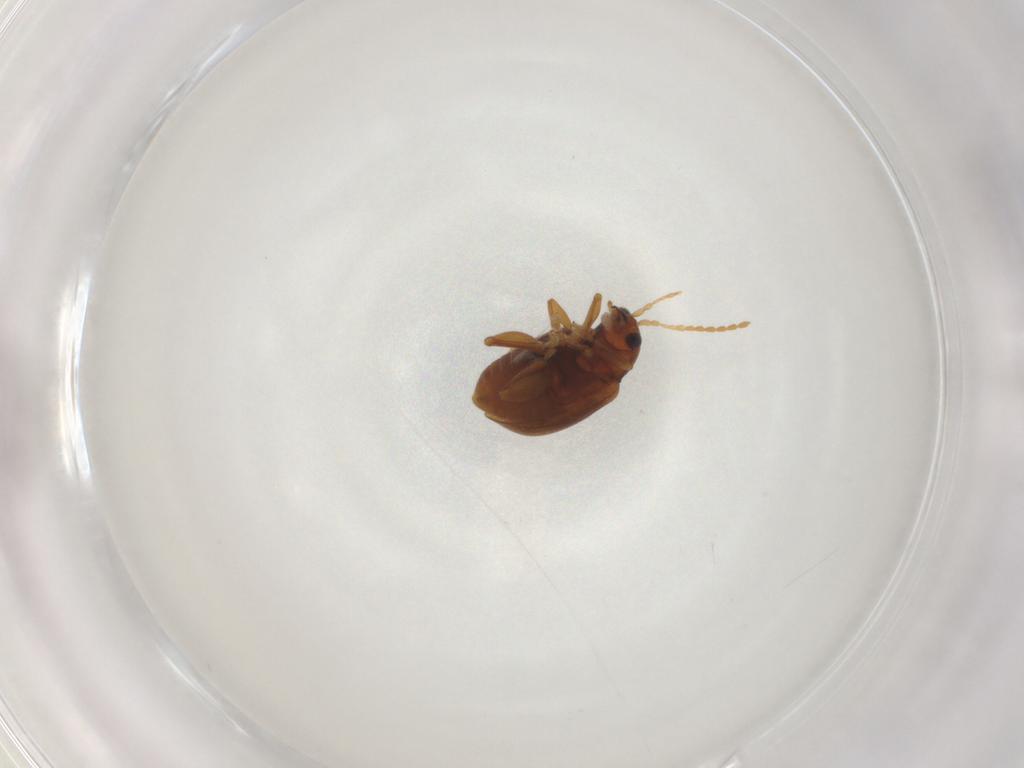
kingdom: Animalia
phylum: Arthropoda
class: Insecta
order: Coleoptera
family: Chrysomelidae
